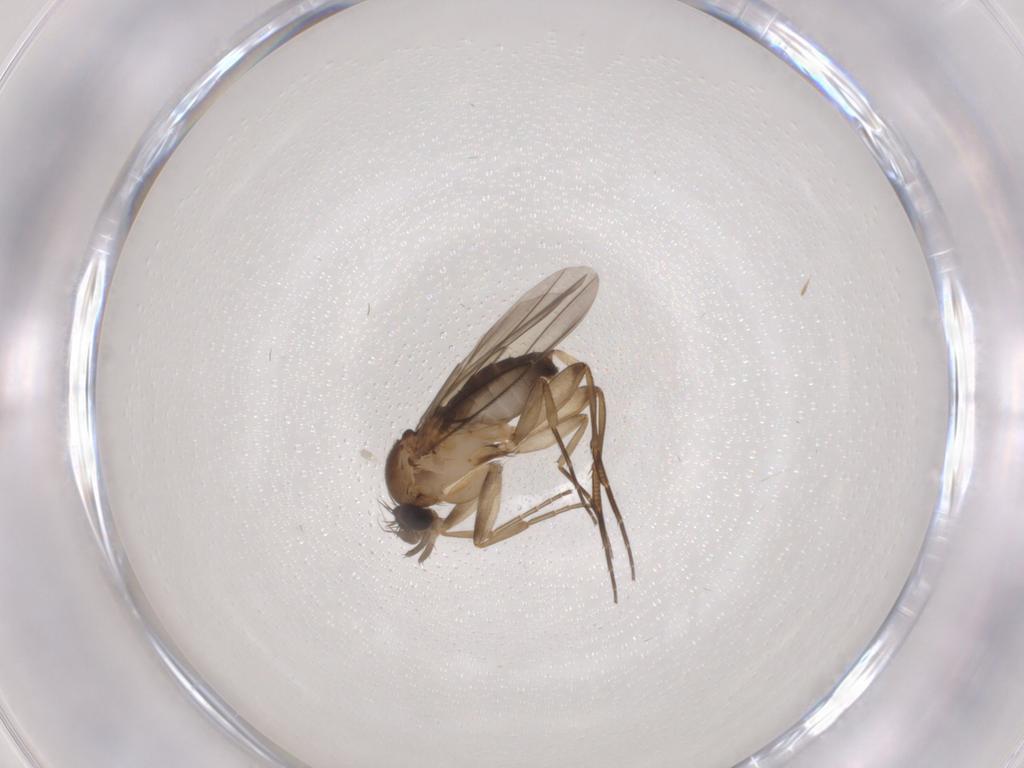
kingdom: Animalia
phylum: Arthropoda
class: Insecta
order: Diptera
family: Phoridae
